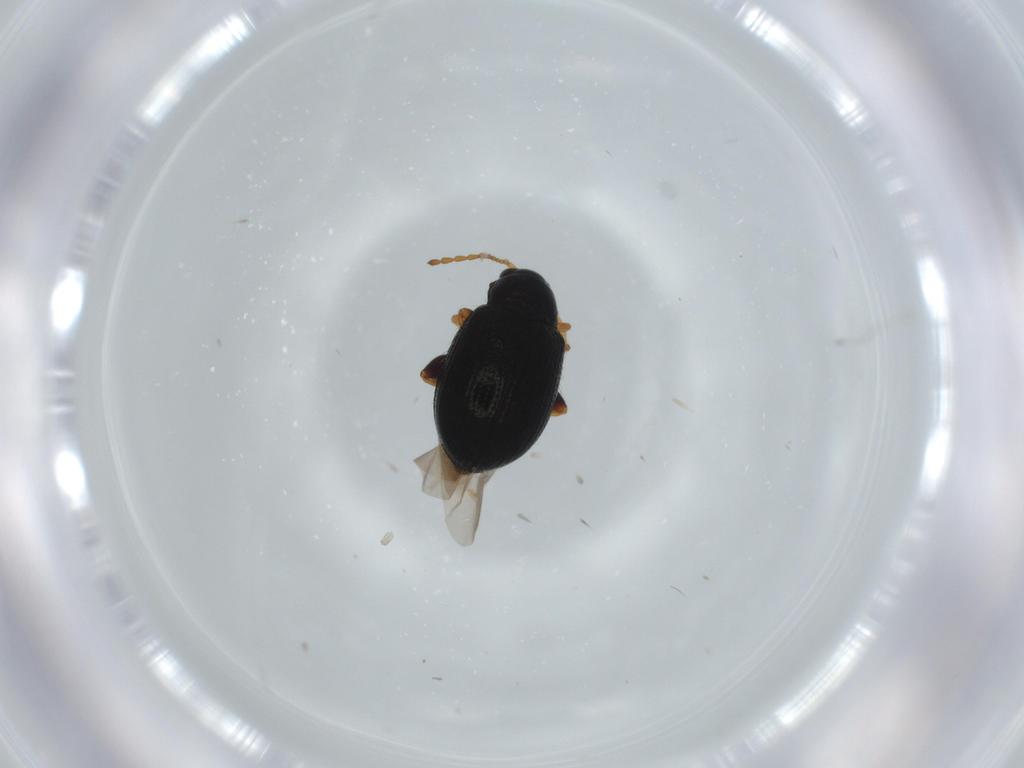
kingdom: Animalia
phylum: Arthropoda
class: Insecta
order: Coleoptera
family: Chrysomelidae
